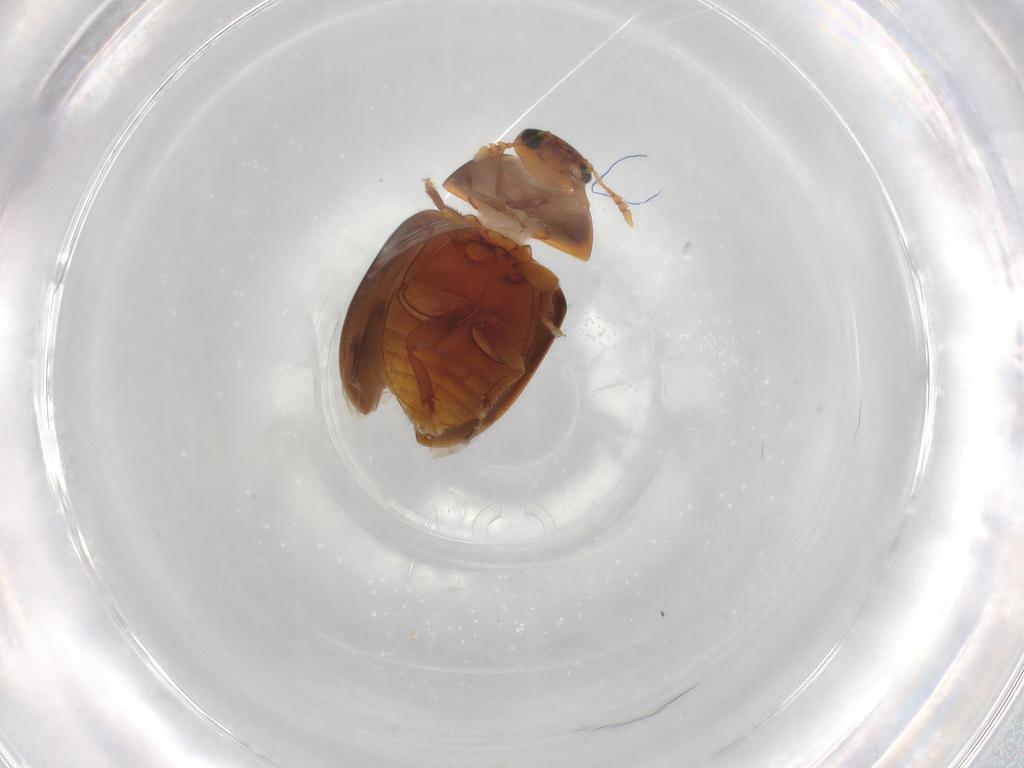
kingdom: Animalia
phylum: Arthropoda
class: Insecta
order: Coleoptera
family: Phalacridae
